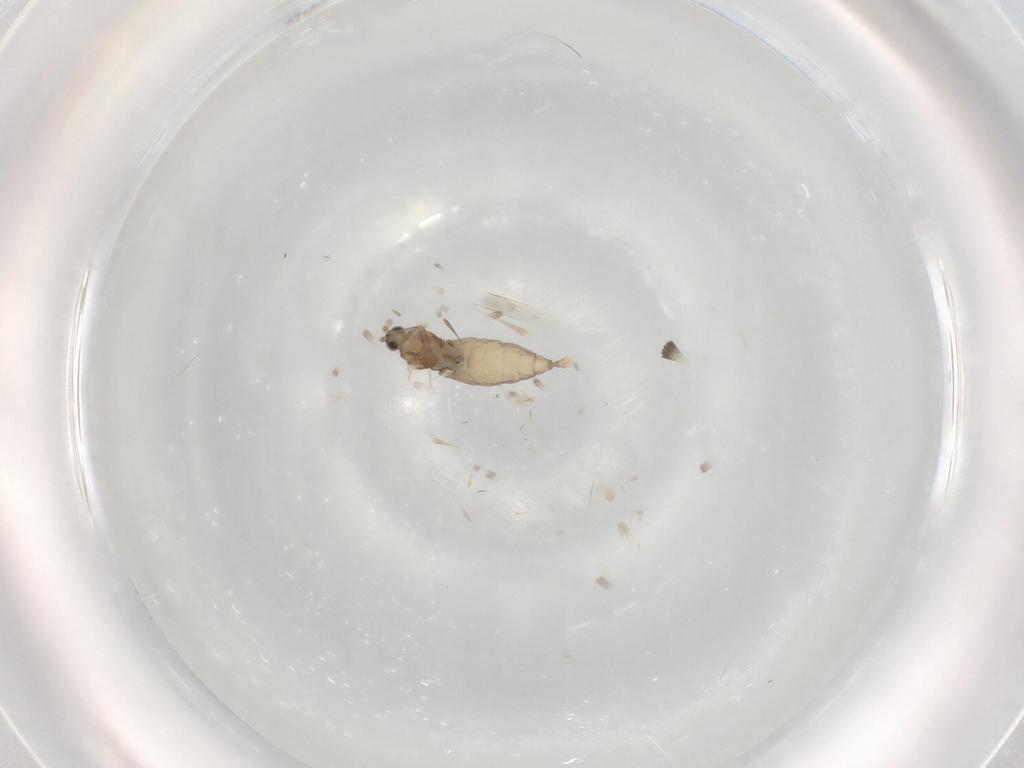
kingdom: Animalia
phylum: Arthropoda
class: Insecta
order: Diptera
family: Cecidomyiidae
